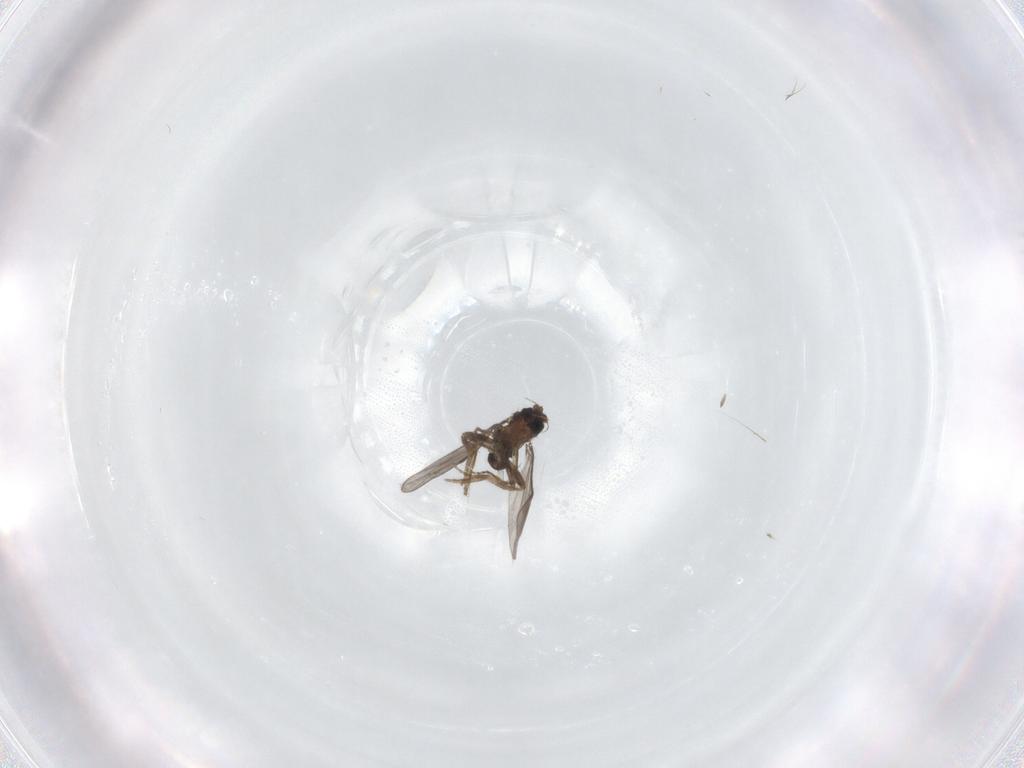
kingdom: Animalia
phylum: Arthropoda
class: Insecta
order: Diptera
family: Phoridae
